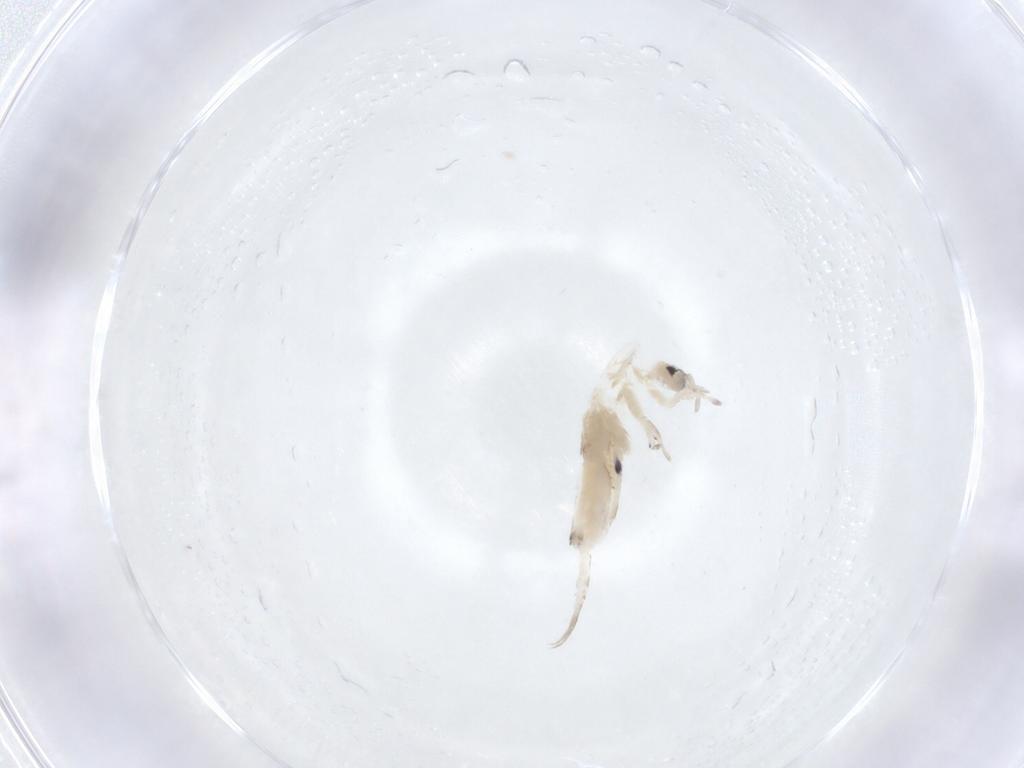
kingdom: Animalia
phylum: Arthropoda
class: Collembola
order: Entomobryomorpha
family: Entomobryidae
